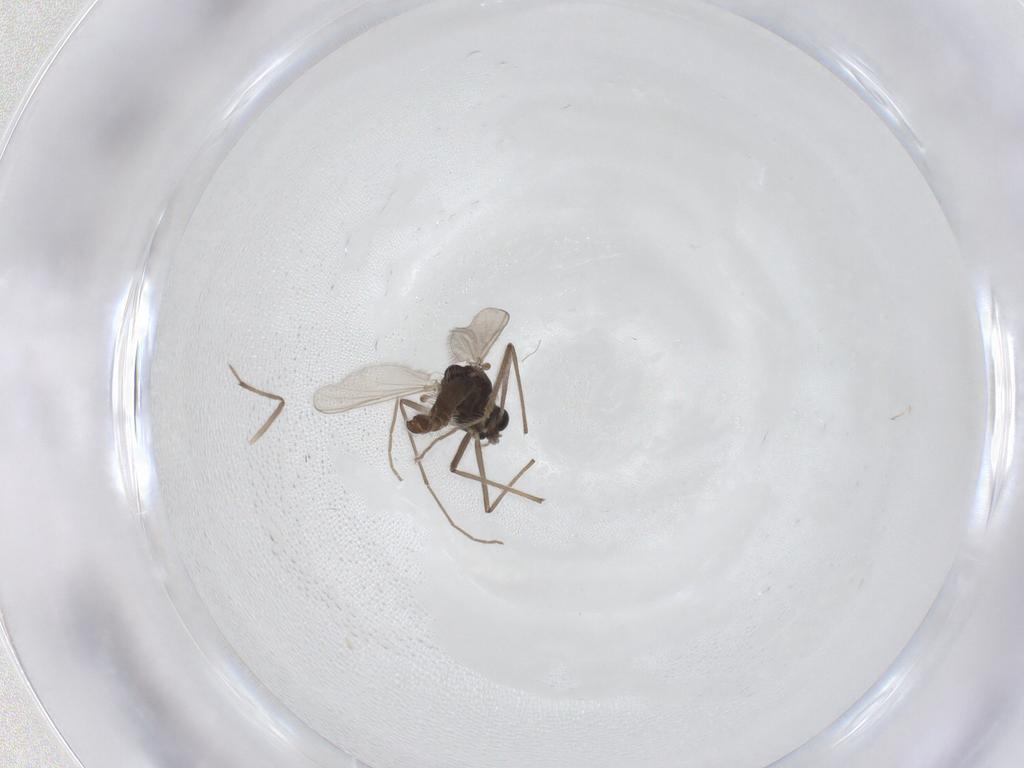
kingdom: Animalia
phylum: Arthropoda
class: Insecta
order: Diptera
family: Chironomidae
